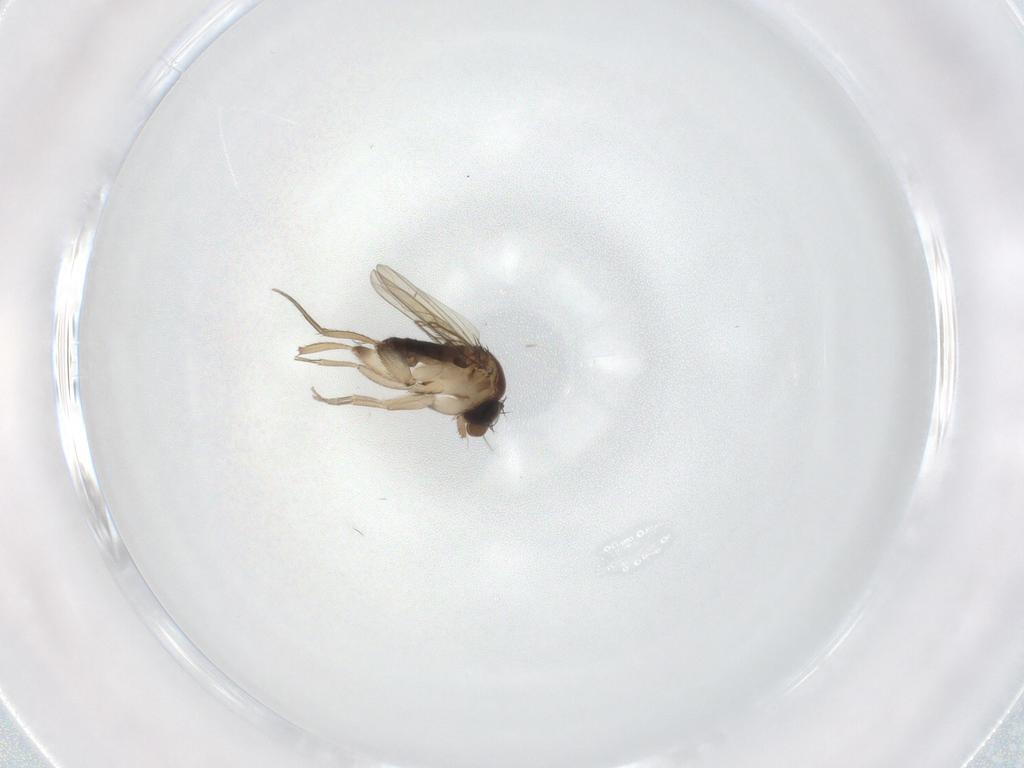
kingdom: Animalia
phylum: Arthropoda
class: Insecta
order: Diptera
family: Phoridae
